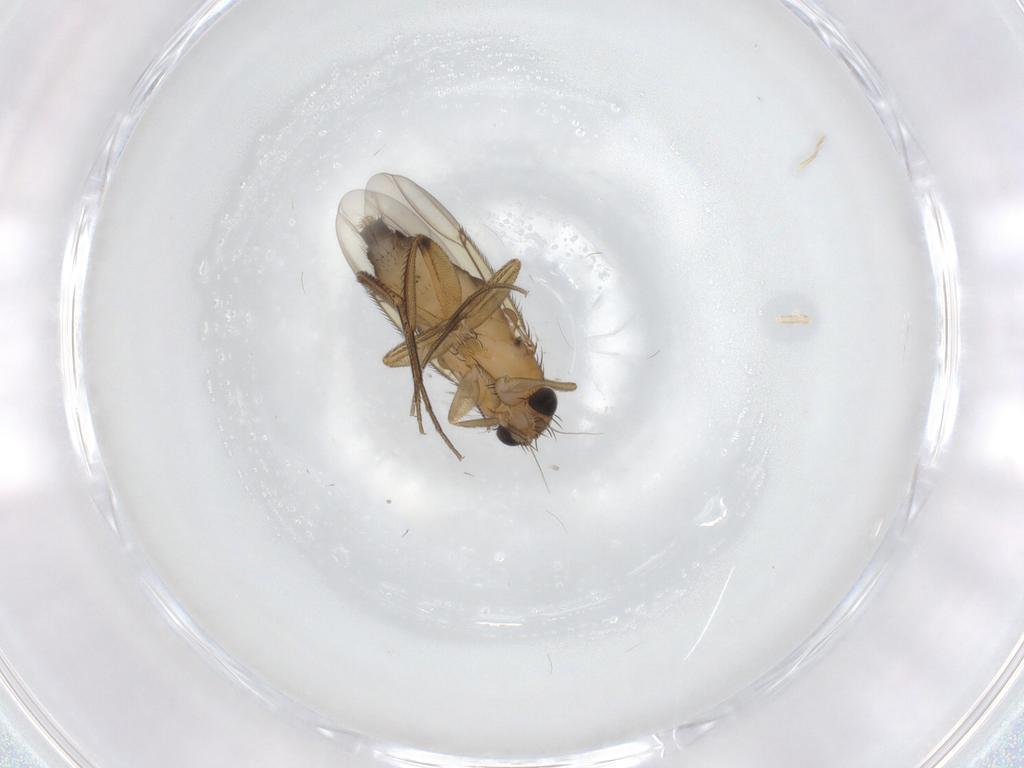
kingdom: Animalia
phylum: Arthropoda
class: Insecta
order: Diptera
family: Phoridae
